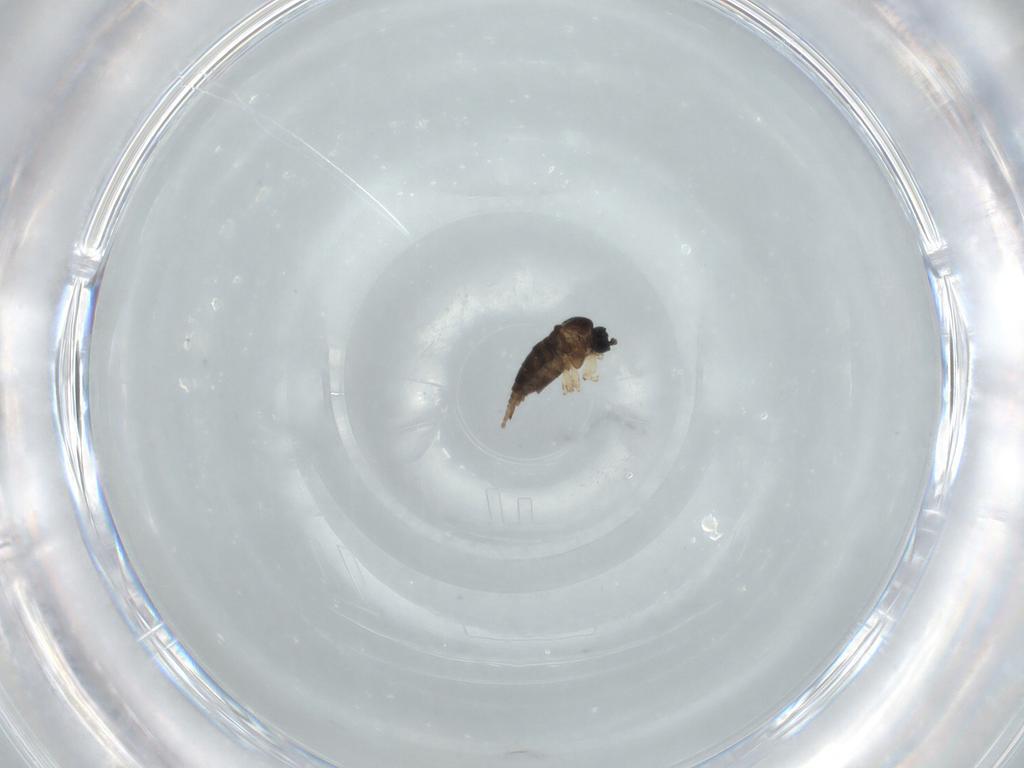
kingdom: Animalia
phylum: Arthropoda
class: Insecta
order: Diptera
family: Sciaridae
